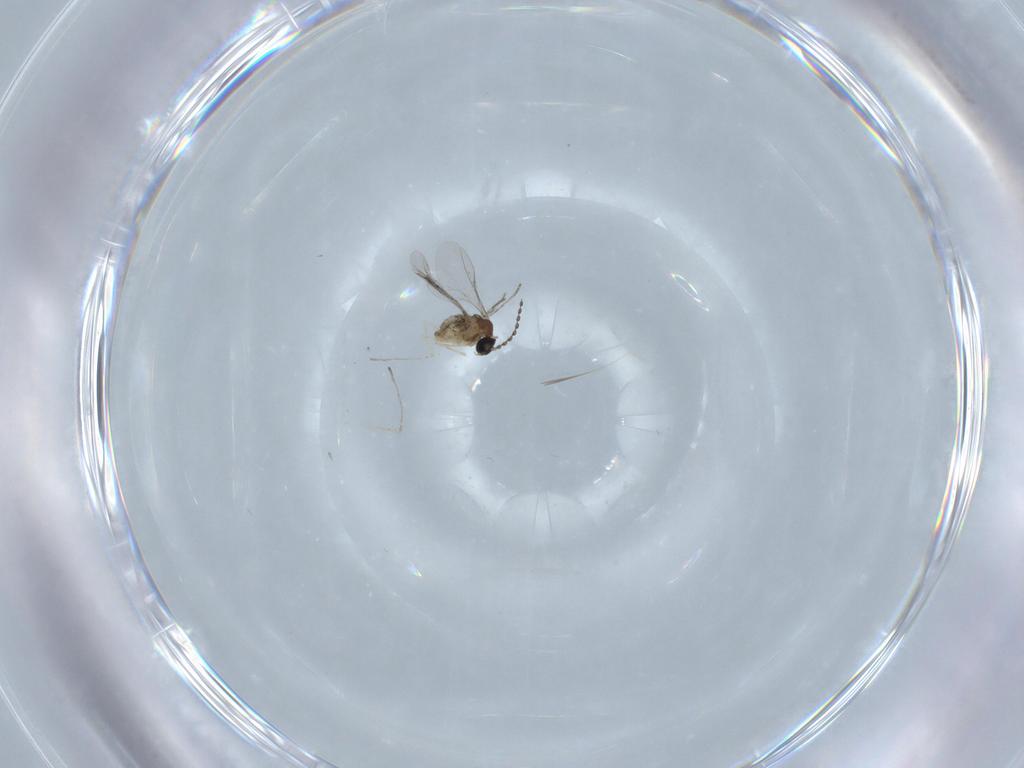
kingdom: Animalia
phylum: Arthropoda
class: Insecta
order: Diptera
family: Cecidomyiidae
